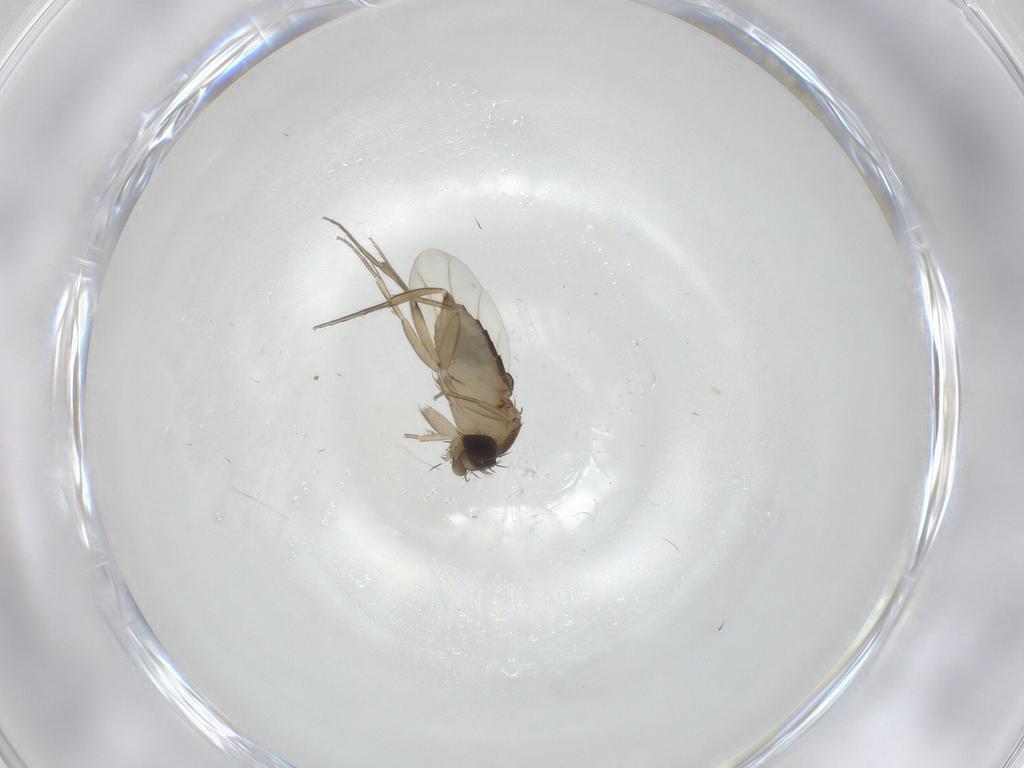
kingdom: Animalia
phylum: Arthropoda
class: Insecta
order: Diptera
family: Phoridae
